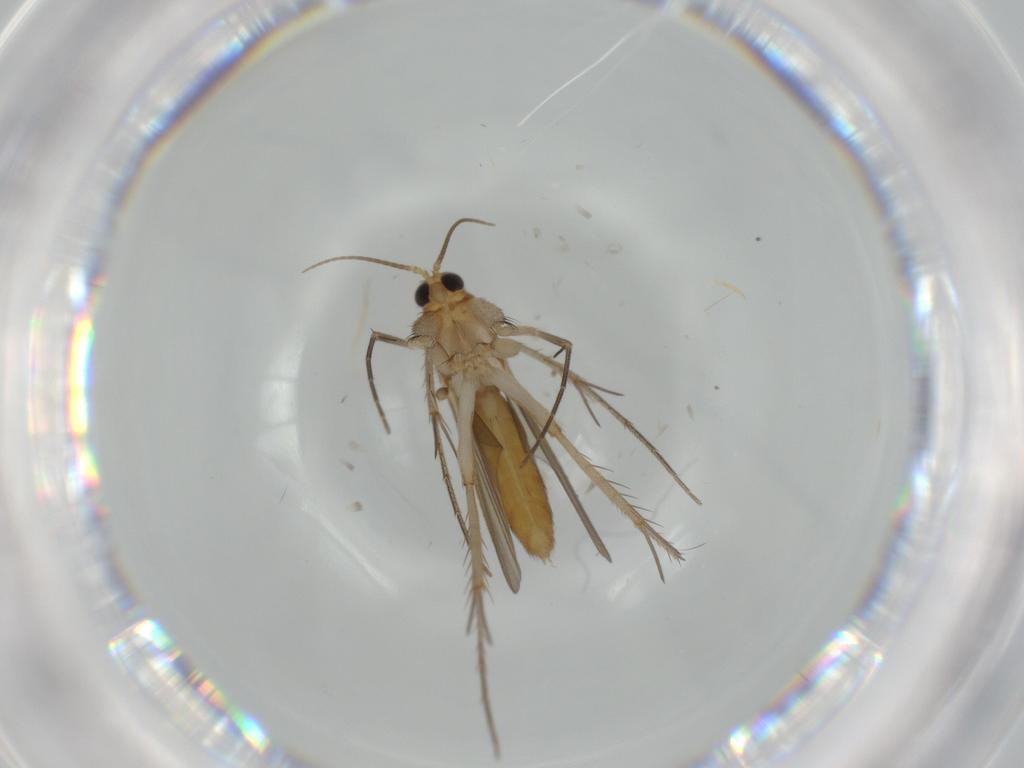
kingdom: Animalia
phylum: Arthropoda
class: Insecta
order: Diptera
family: Mycetophilidae
